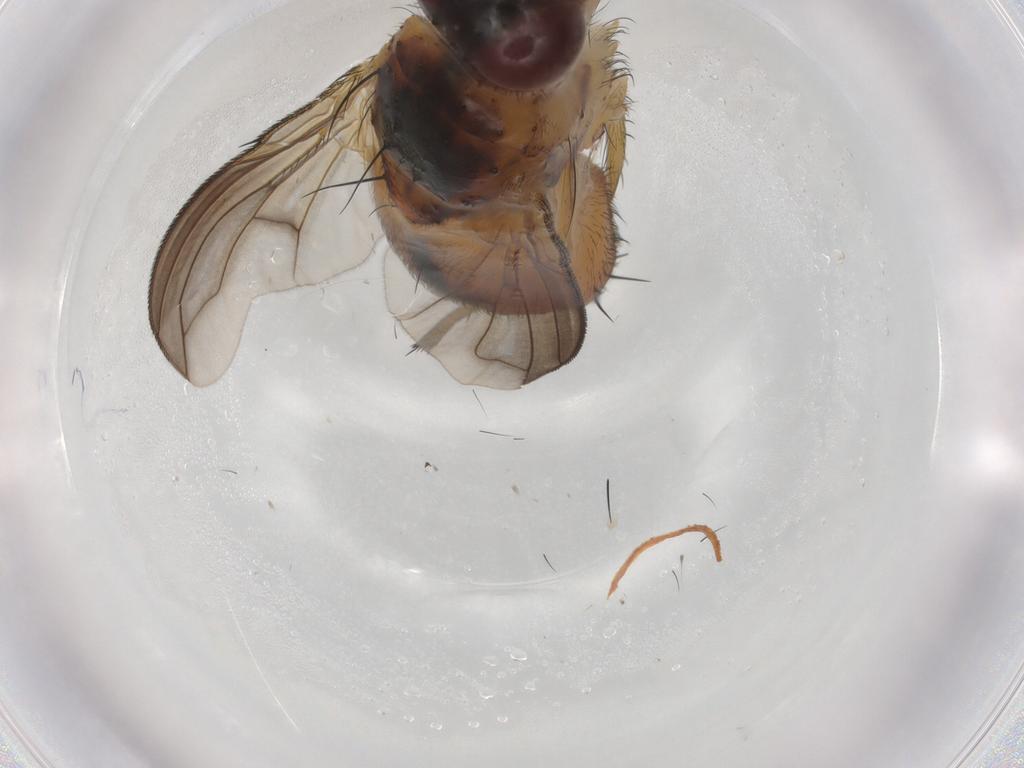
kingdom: Animalia
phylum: Arthropoda
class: Insecta
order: Diptera
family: Tachinidae
